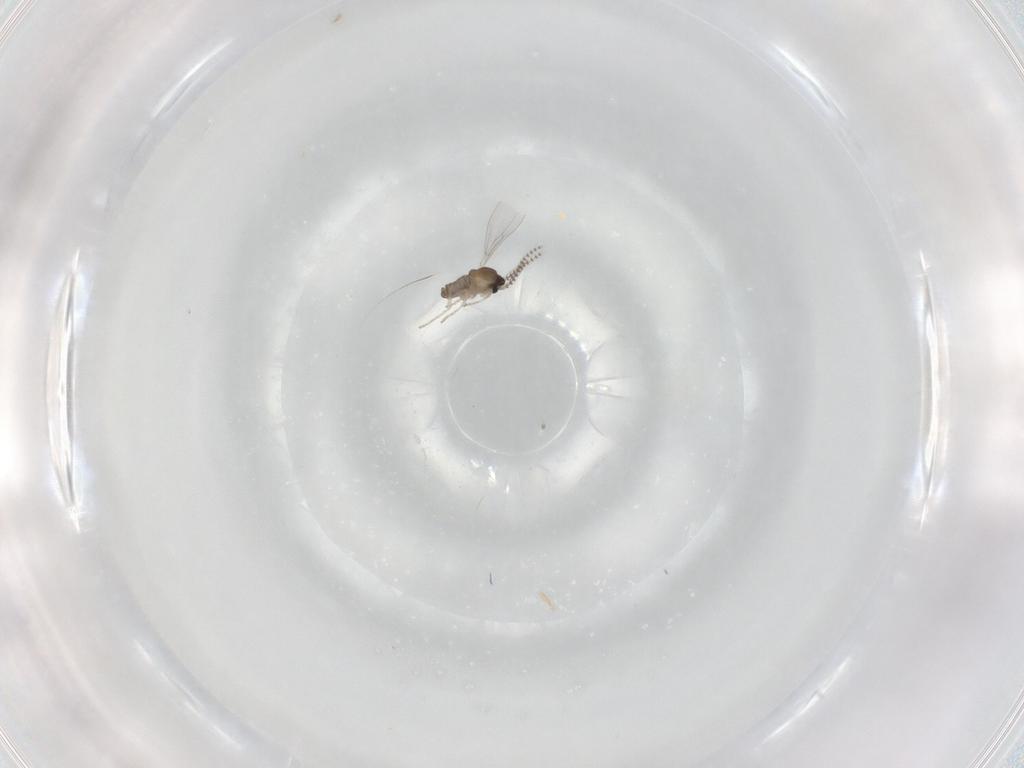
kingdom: Animalia
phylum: Arthropoda
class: Insecta
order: Diptera
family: Cecidomyiidae
